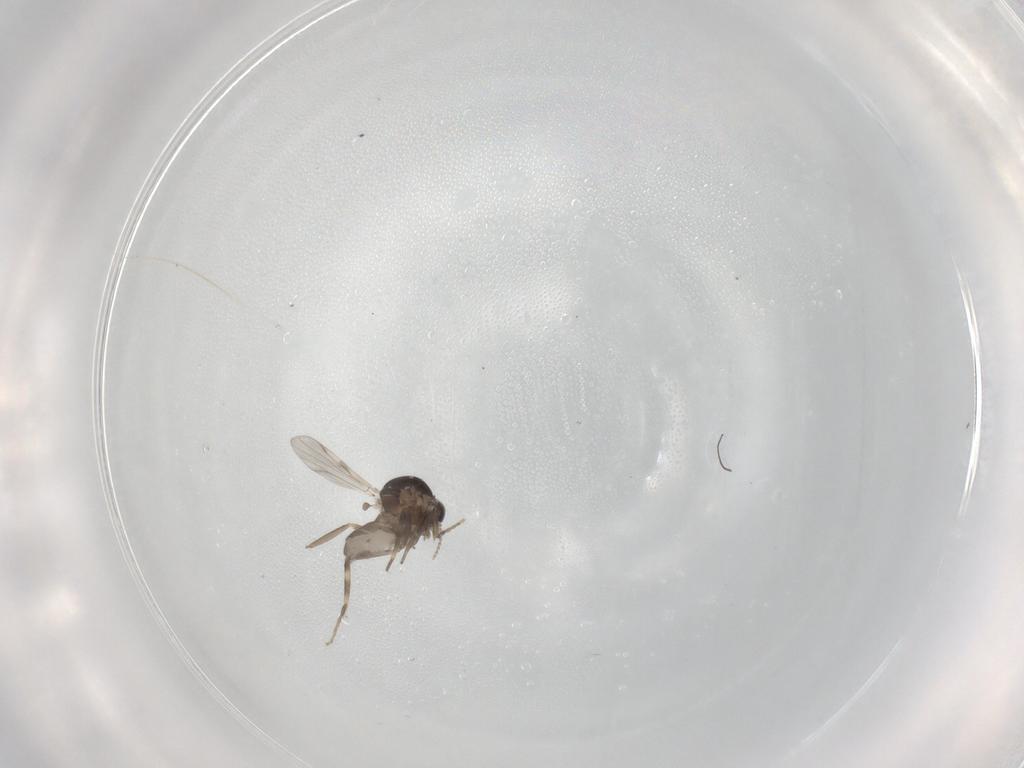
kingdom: Animalia
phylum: Arthropoda
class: Insecta
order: Diptera
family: Ceratopogonidae
